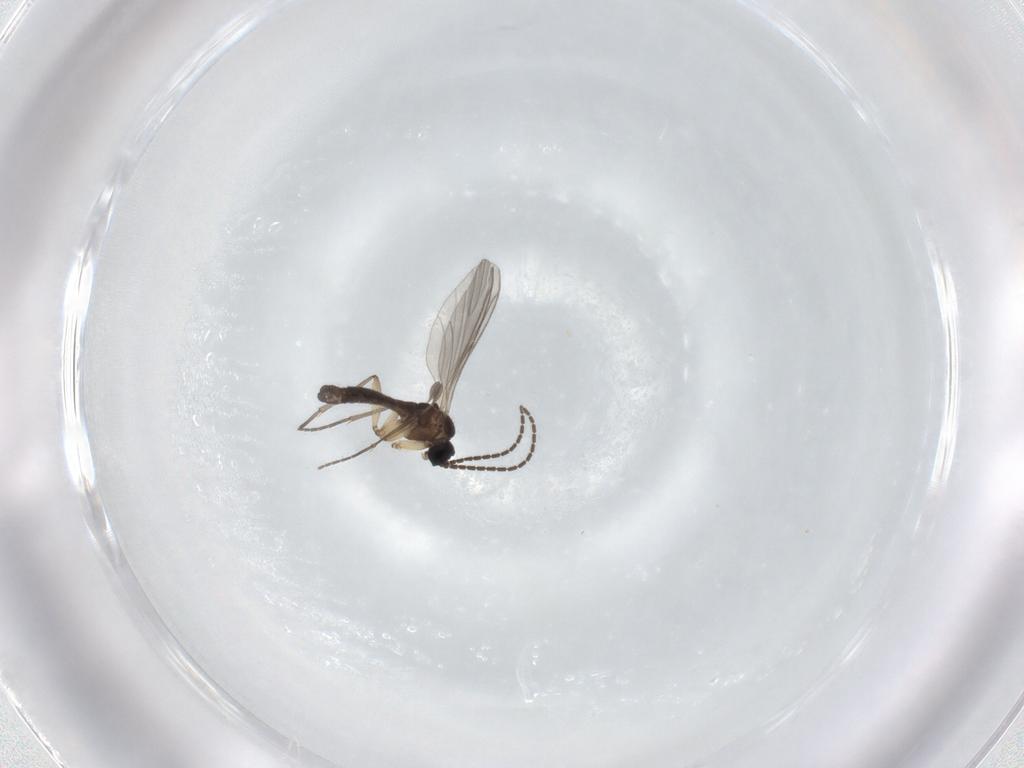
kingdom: Animalia
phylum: Arthropoda
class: Insecta
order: Diptera
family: Sciaridae
